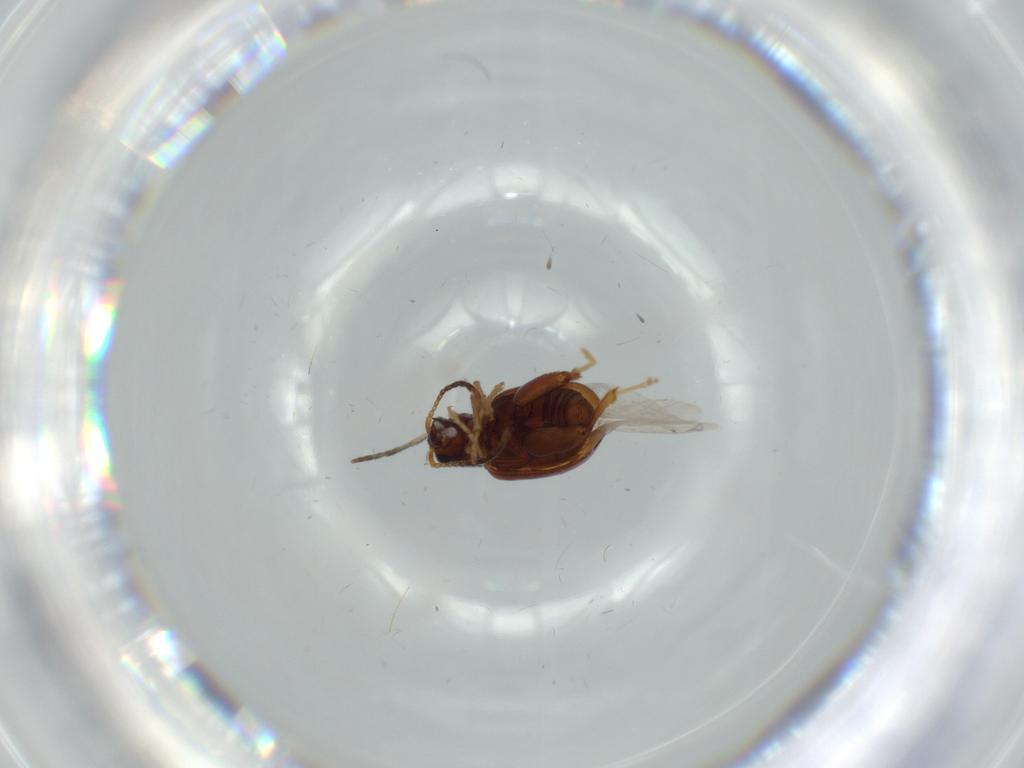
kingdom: Animalia
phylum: Arthropoda
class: Insecta
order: Coleoptera
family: Chrysomelidae
